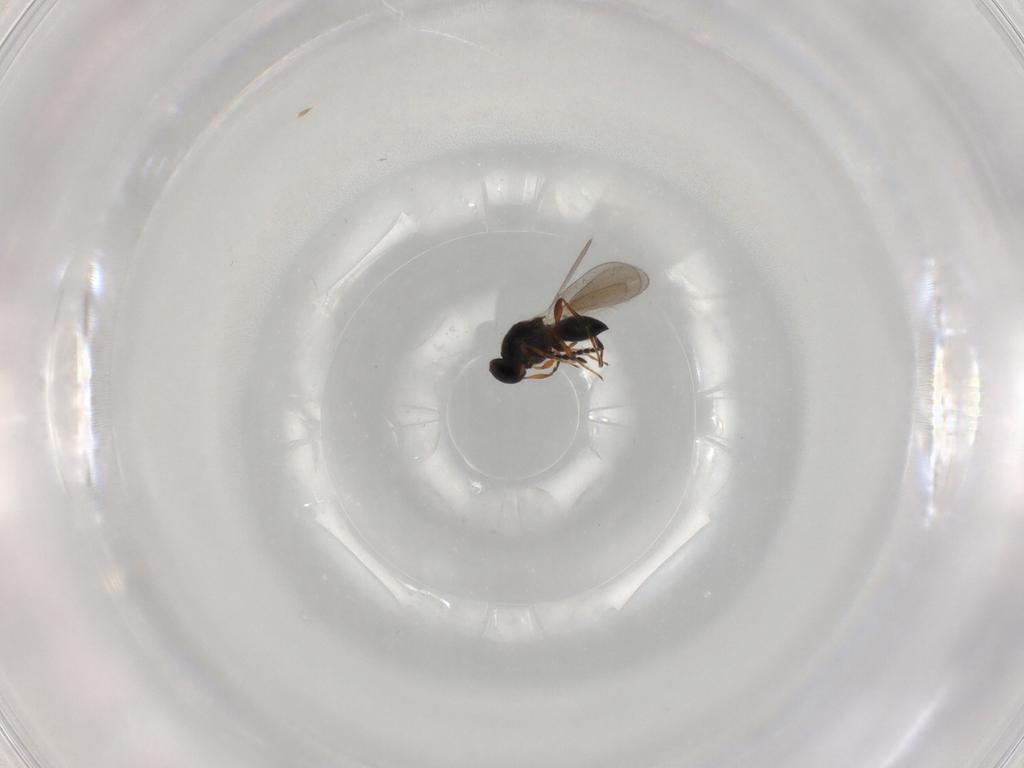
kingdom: Animalia
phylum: Arthropoda
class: Insecta
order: Hymenoptera
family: Platygastridae
